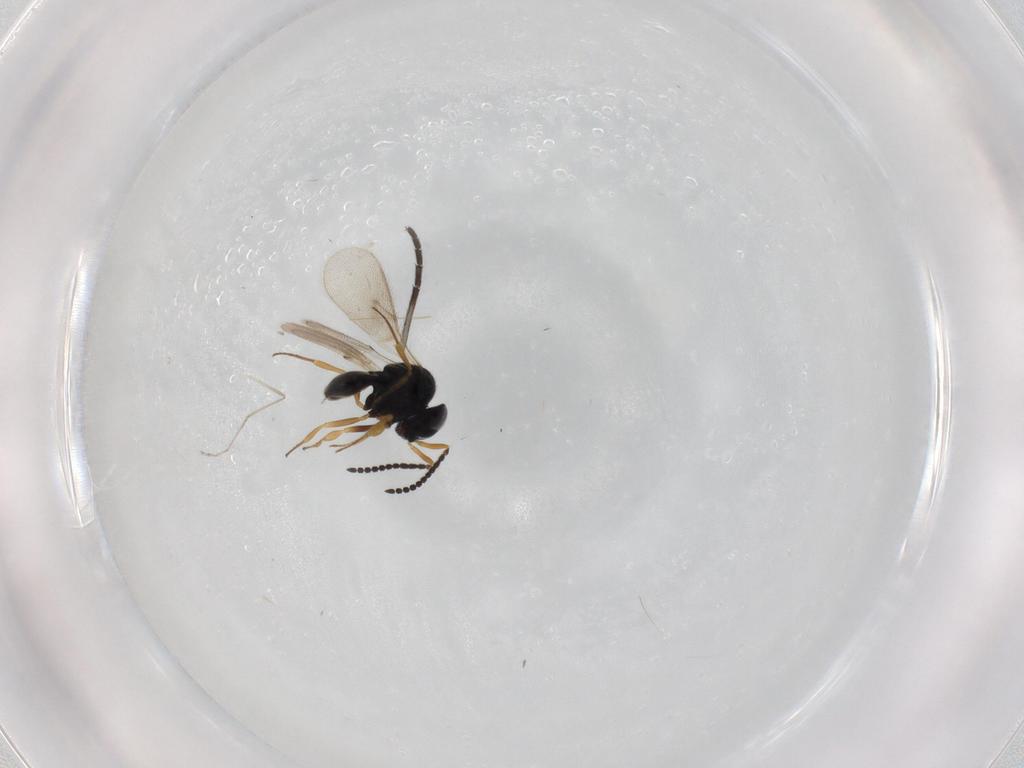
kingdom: Animalia
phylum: Arthropoda
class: Insecta
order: Hymenoptera
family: Scelionidae
